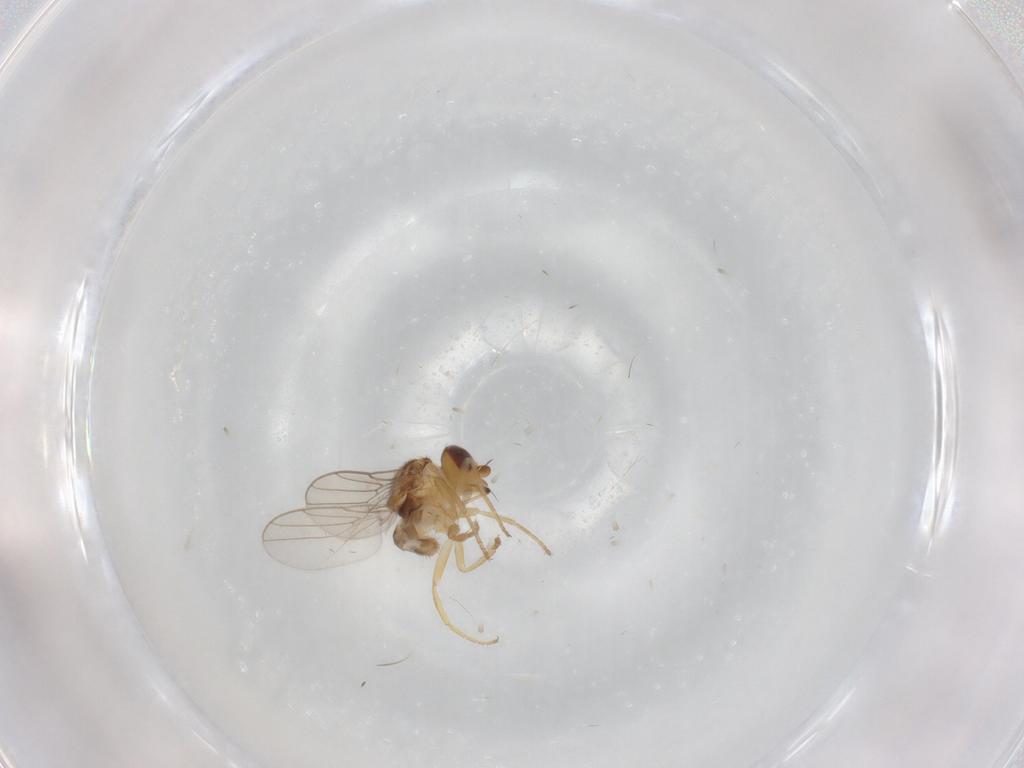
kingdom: Animalia
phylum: Arthropoda
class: Insecta
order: Diptera
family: Chloropidae
